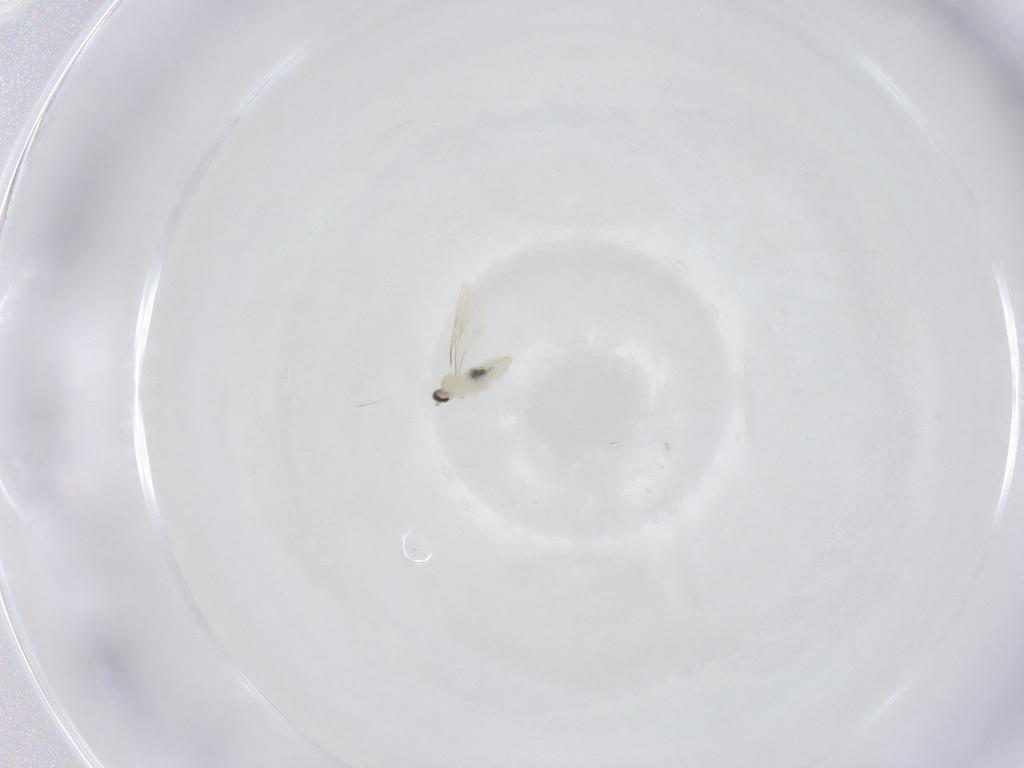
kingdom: Animalia
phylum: Arthropoda
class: Insecta
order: Diptera
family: Cecidomyiidae
